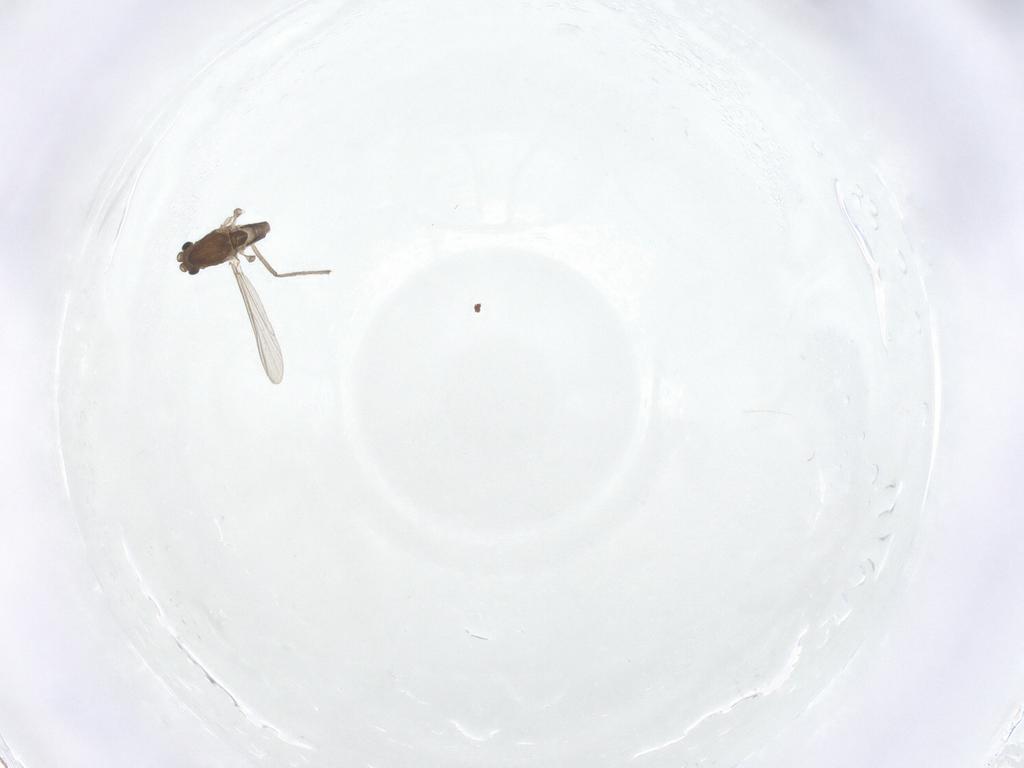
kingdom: Animalia
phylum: Arthropoda
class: Insecta
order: Diptera
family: Chironomidae
